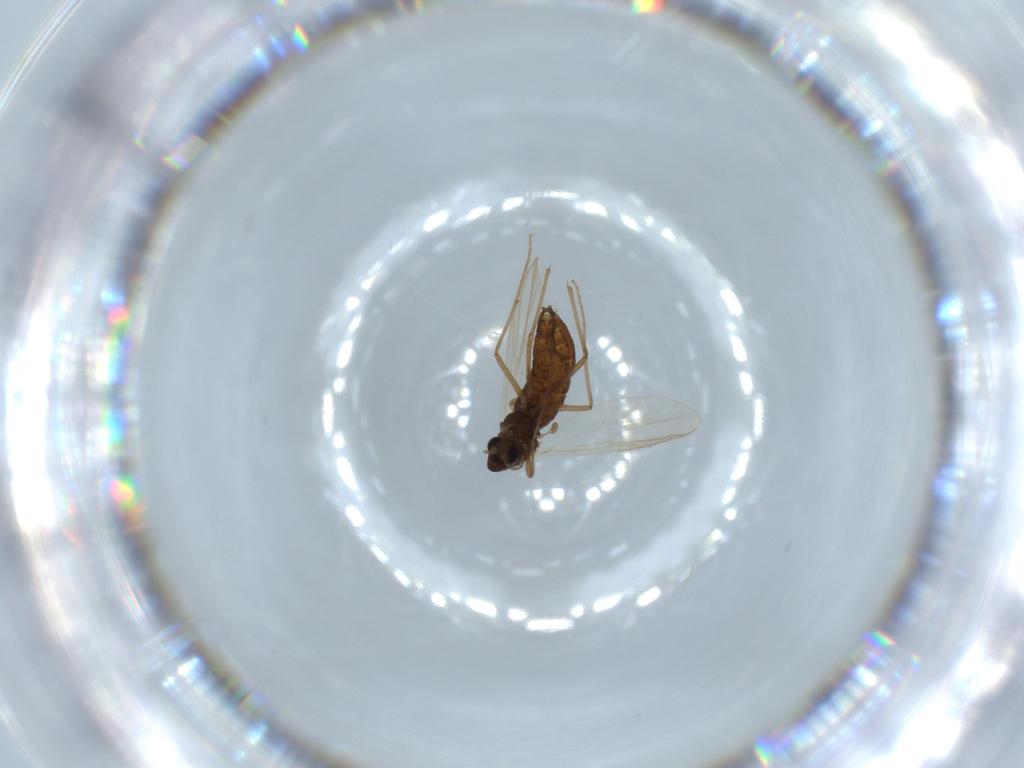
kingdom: Animalia
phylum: Arthropoda
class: Insecta
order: Diptera
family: Chironomidae
